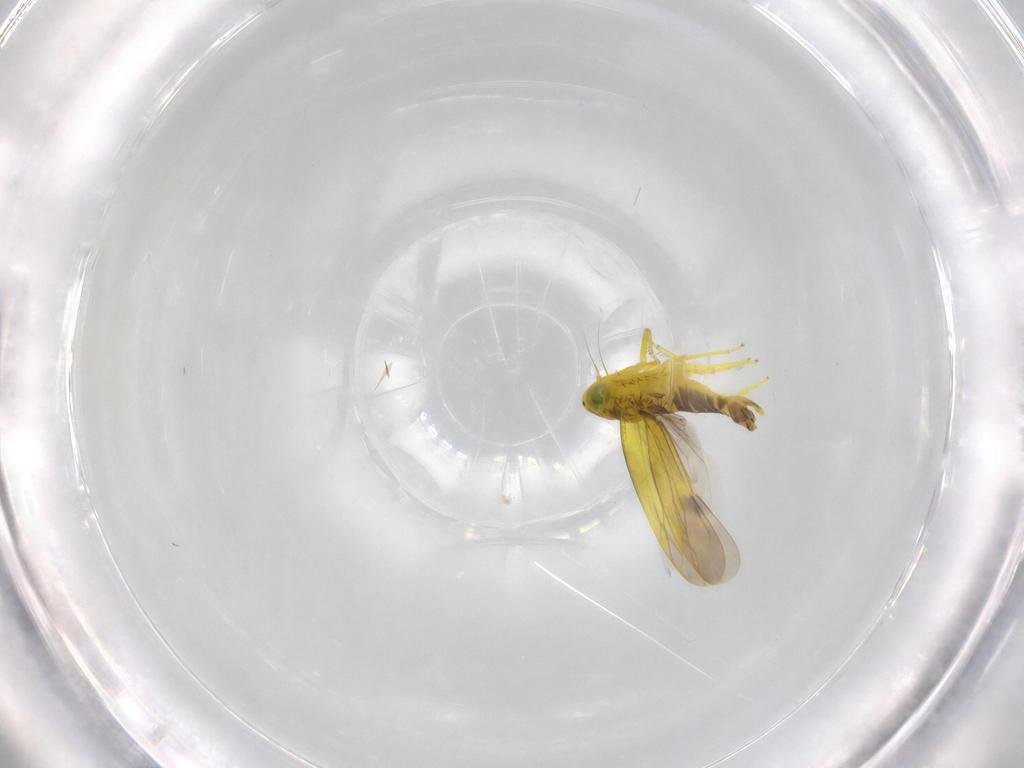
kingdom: Animalia
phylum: Arthropoda
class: Insecta
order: Hemiptera
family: Cicadellidae
